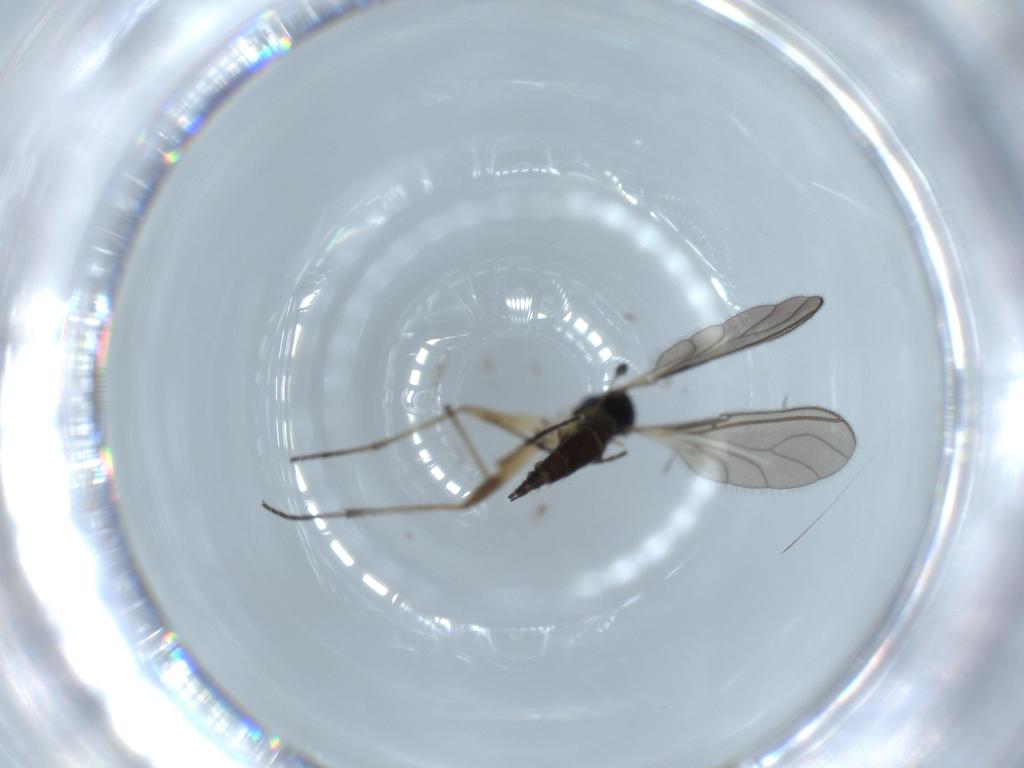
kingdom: Animalia
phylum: Arthropoda
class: Insecta
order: Diptera
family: Sciaridae
